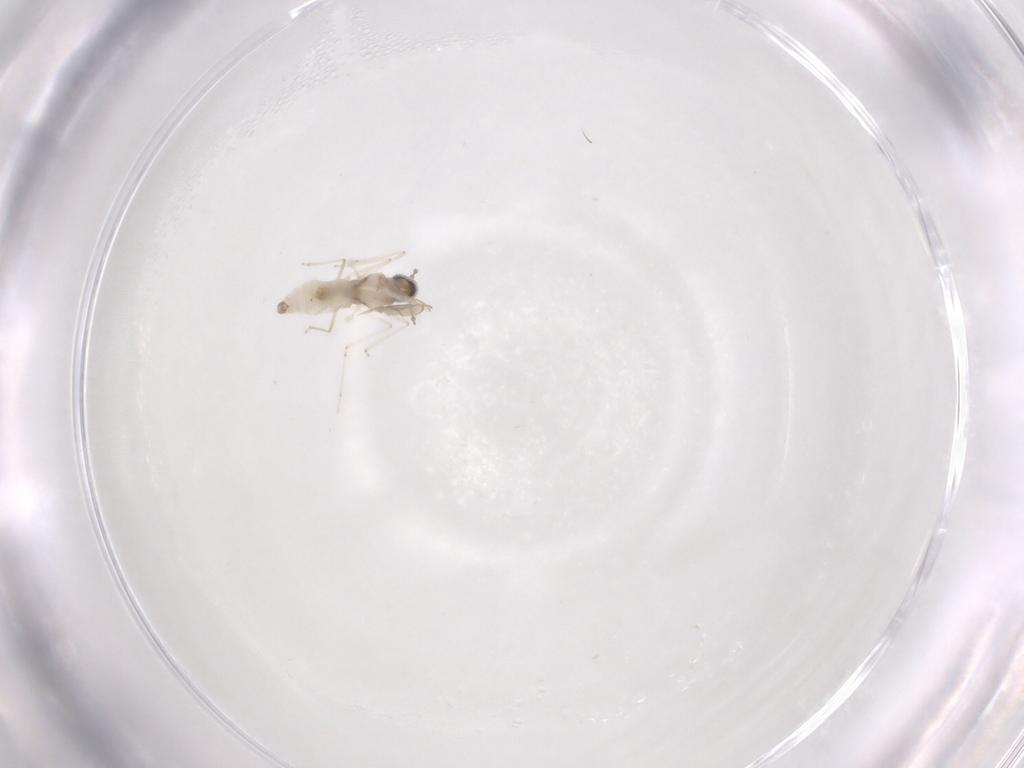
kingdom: Animalia
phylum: Arthropoda
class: Insecta
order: Diptera
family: Cecidomyiidae
